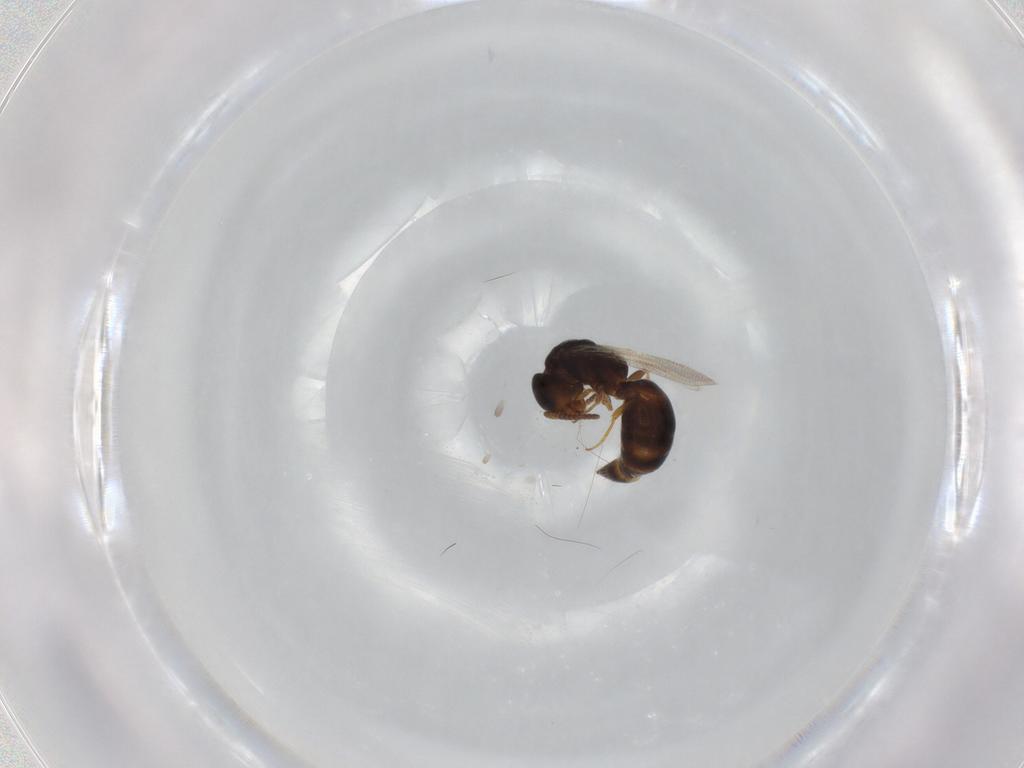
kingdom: Animalia
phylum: Arthropoda
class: Insecta
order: Hymenoptera
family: Bethylidae
